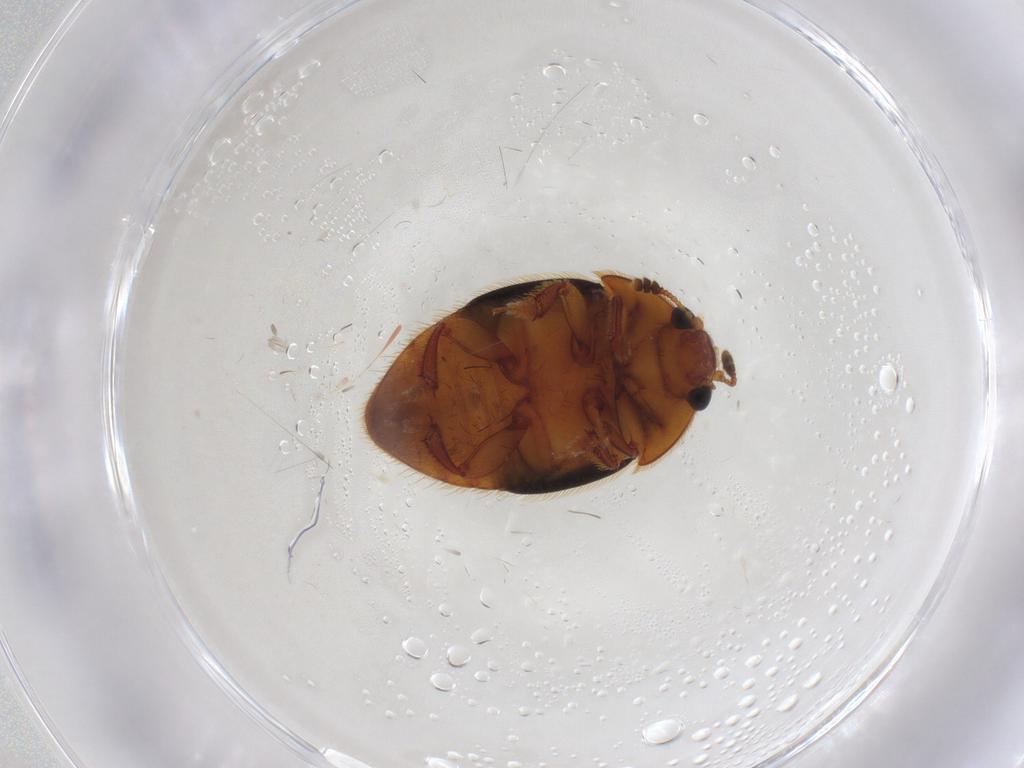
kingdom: Animalia
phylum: Arthropoda
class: Insecta
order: Coleoptera
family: Nitidulidae
